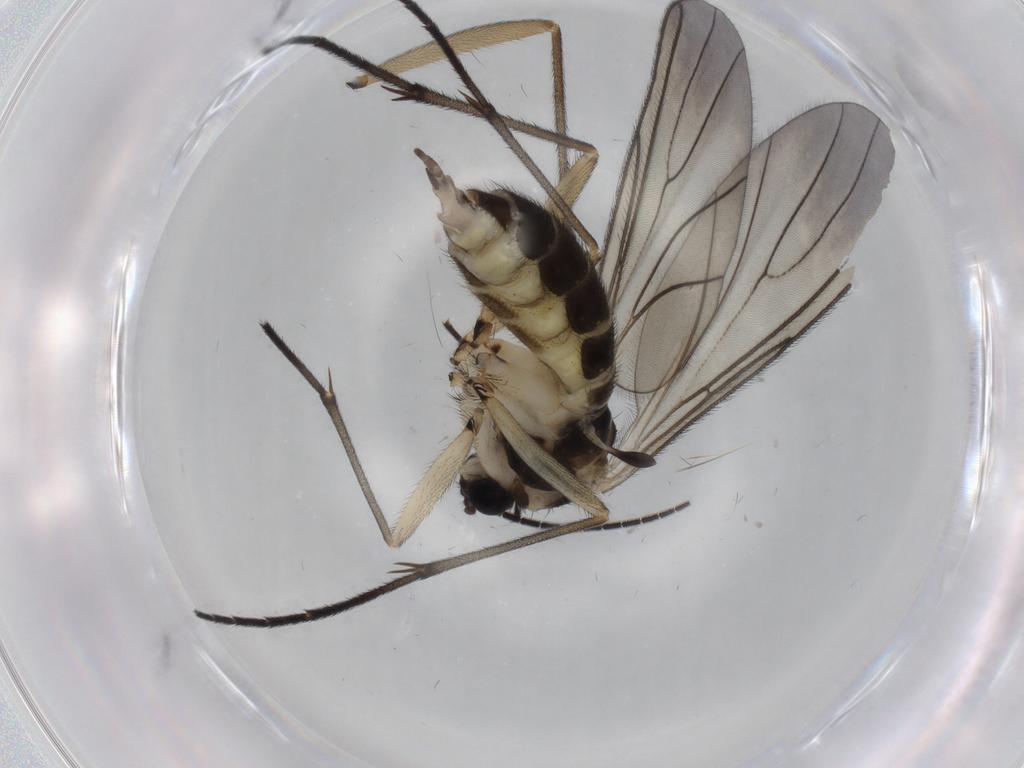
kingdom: Animalia
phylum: Arthropoda
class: Insecta
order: Diptera
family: Sciaridae
